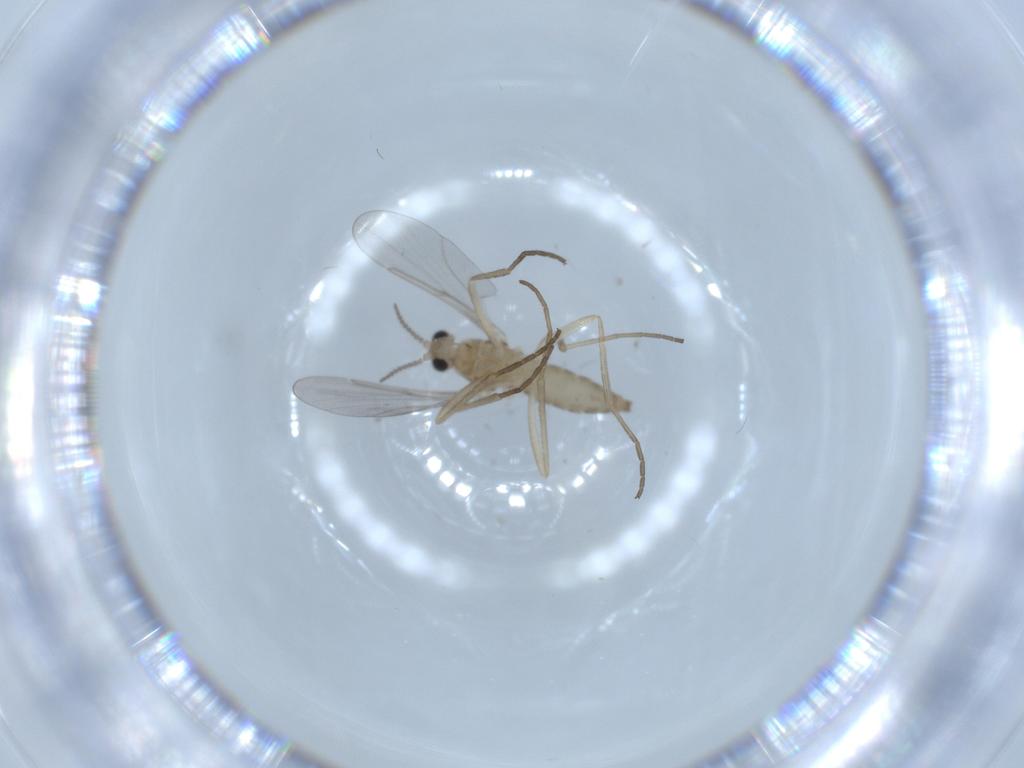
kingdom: Animalia
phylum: Arthropoda
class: Insecta
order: Diptera
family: Cecidomyiidae
